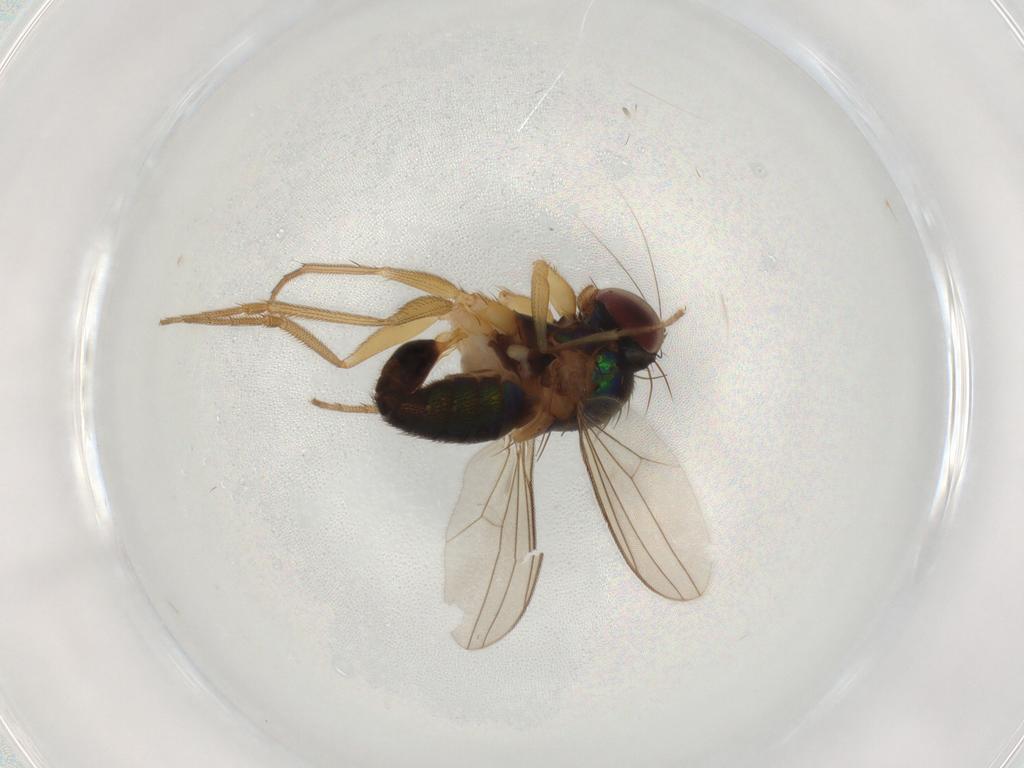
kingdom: Animalia
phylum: Arthropoda
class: Insecta
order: Diptera
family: Dolichopodidae
